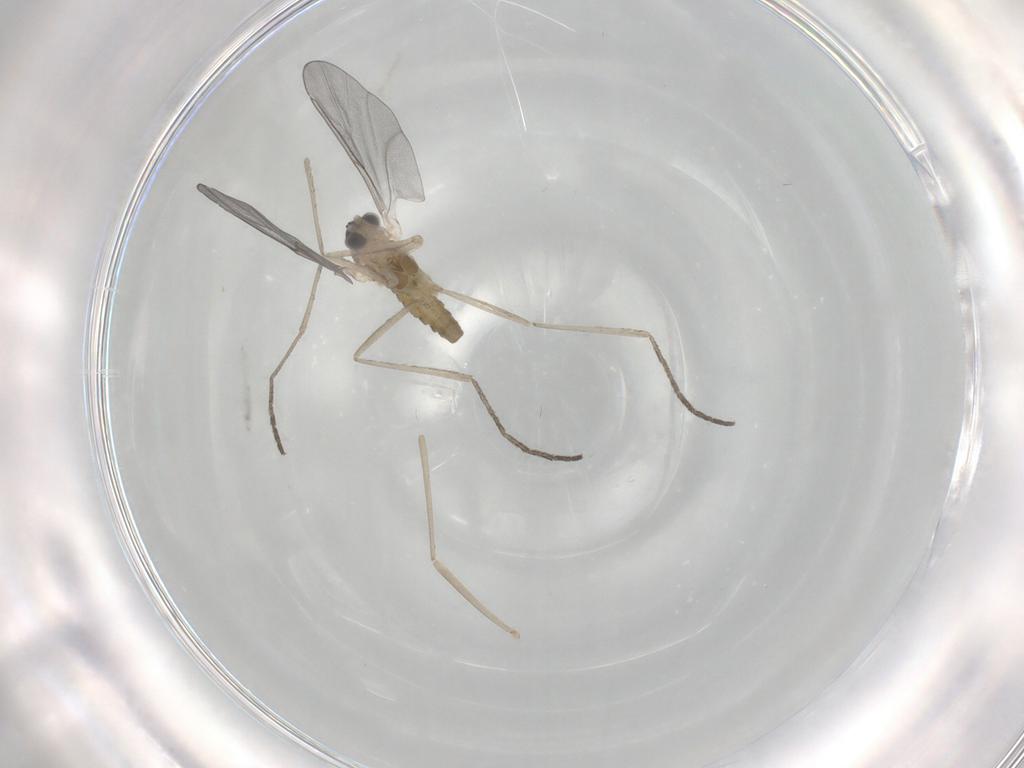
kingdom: Animalia
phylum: Arthropoda
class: Insecta
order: Diptera
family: Cecidomyiidae
